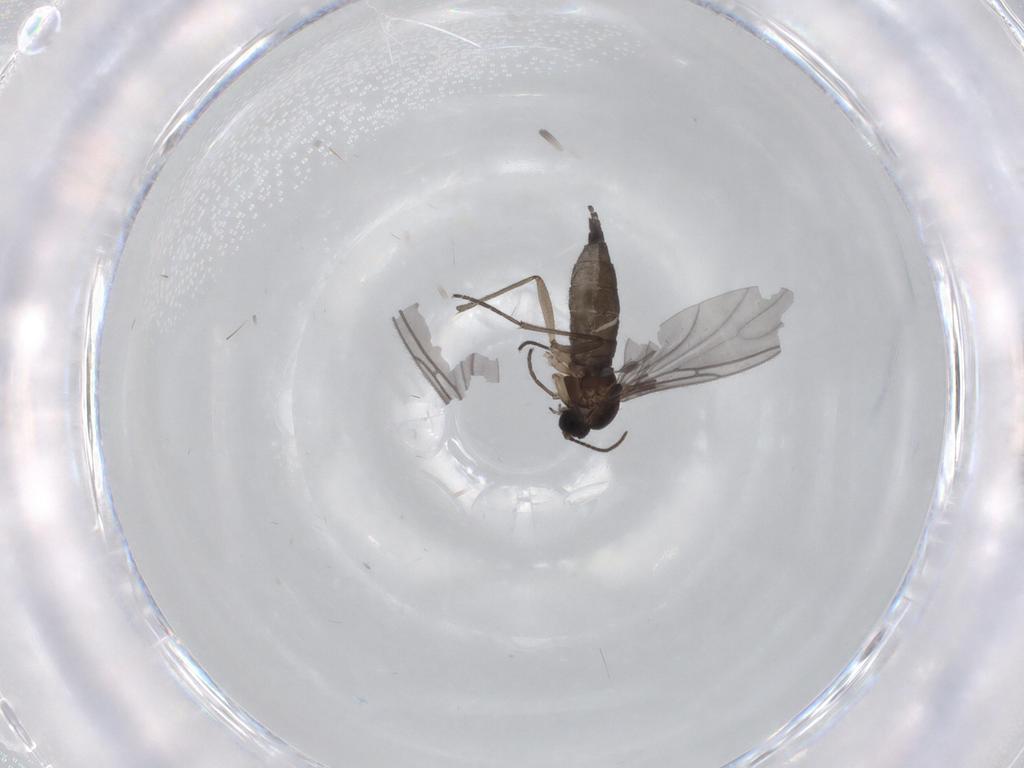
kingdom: Animalia
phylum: Arthropoda
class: Insecta
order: Diptera
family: Sciaridae
